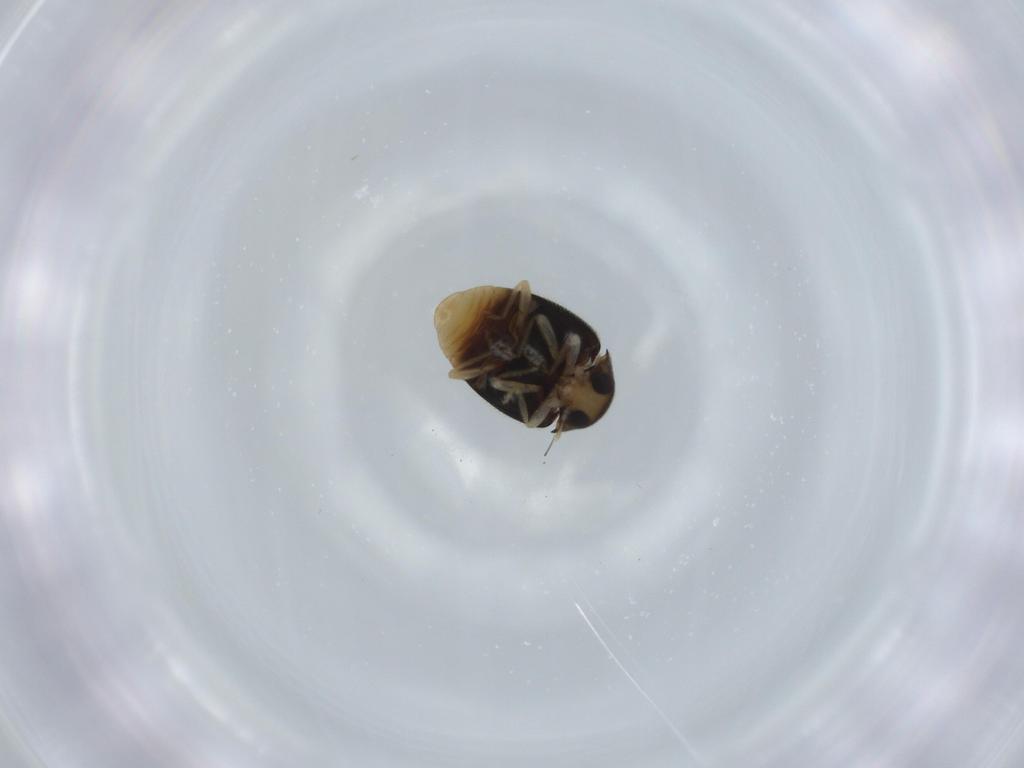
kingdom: Animalia
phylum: Arthropoda
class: Insecta
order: Coleoptera
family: Coccinellidae
